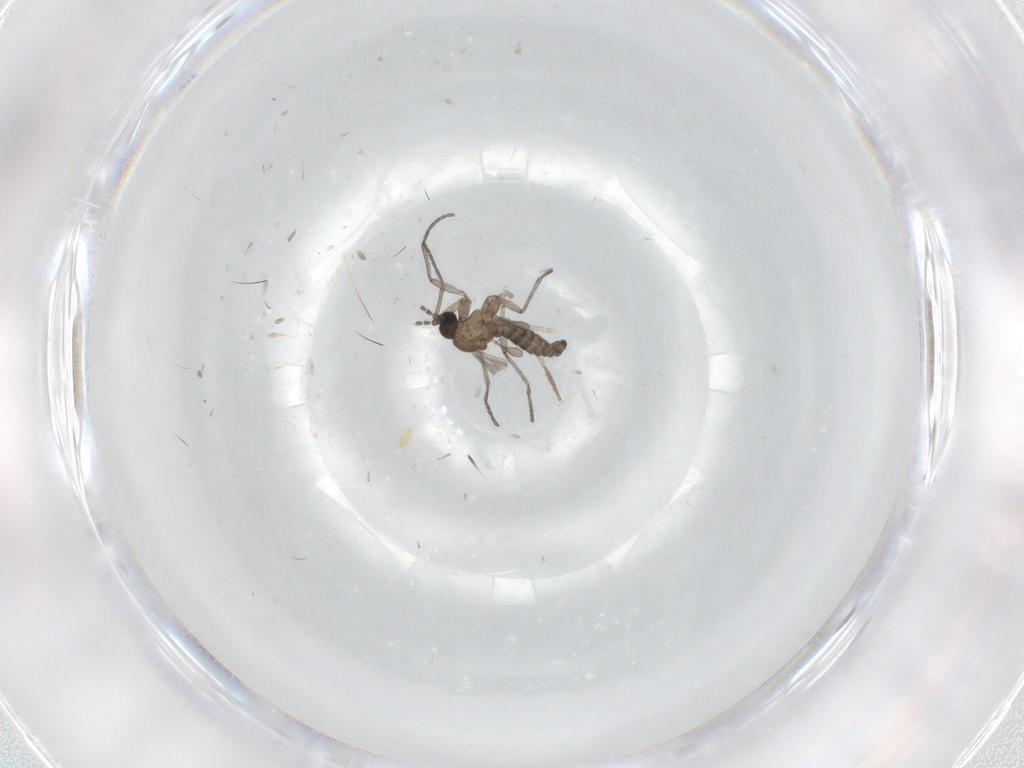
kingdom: Animalia
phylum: Arthropoda
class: Insecta
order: Diptera
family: Sciaridae
